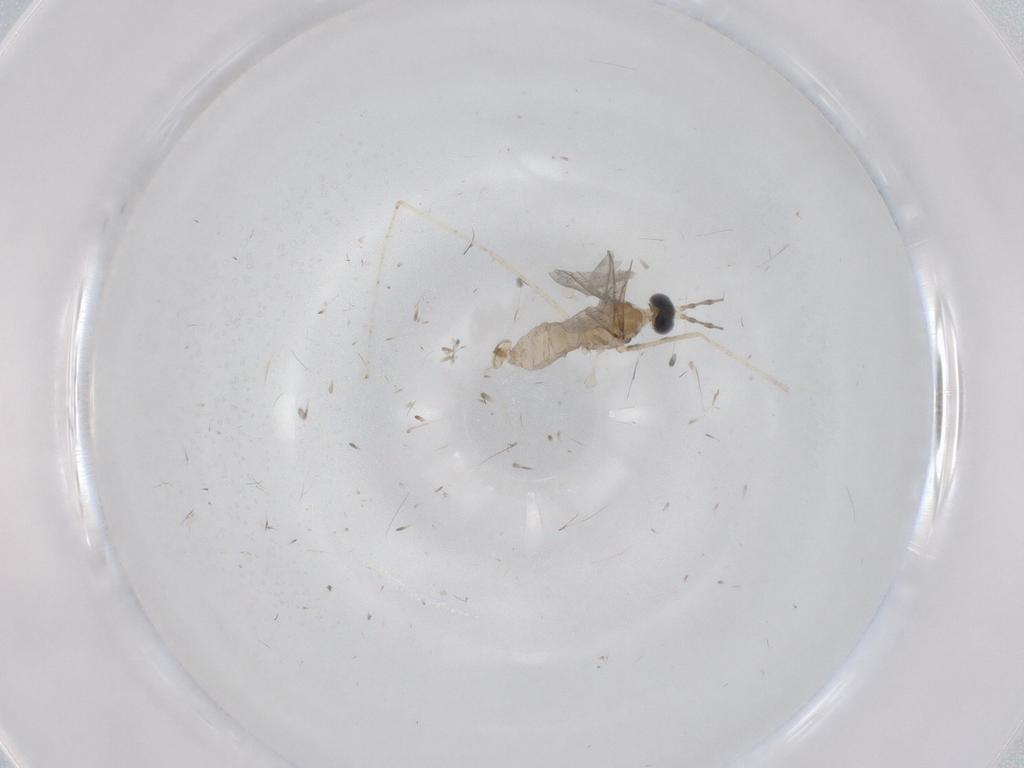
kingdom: Animalia
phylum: Arthropoda
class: Insecta
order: Diptera
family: Cecidomyiidae
